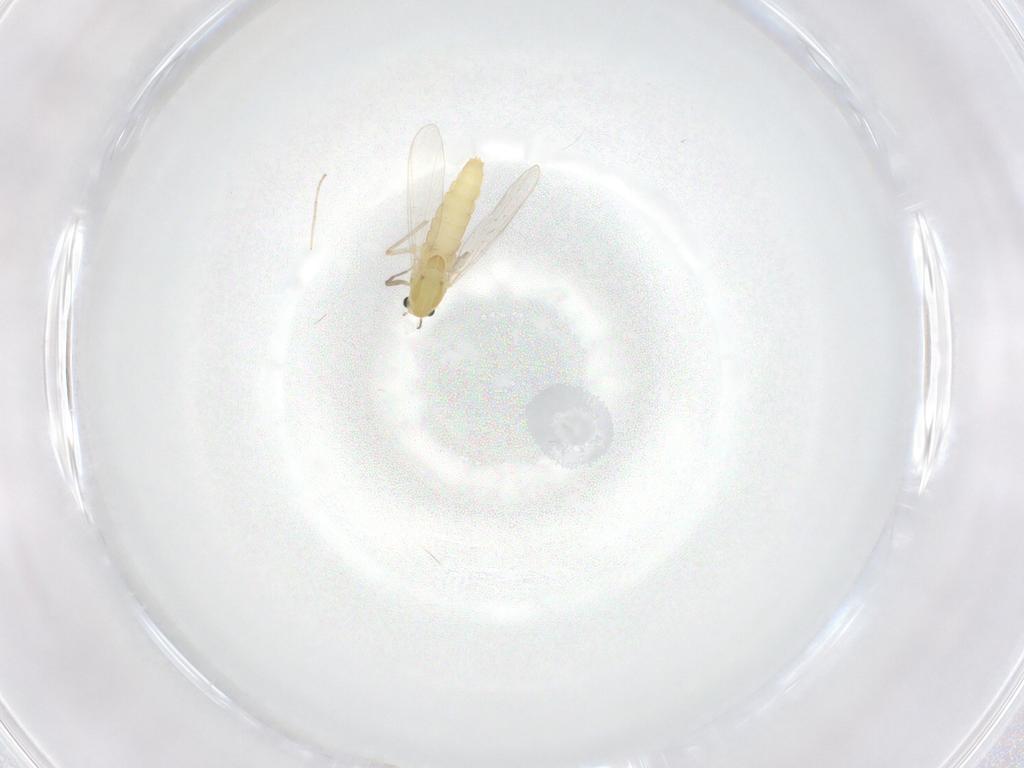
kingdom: Animalia
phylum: Arthropoda
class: Insecta
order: Diptera
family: Chironomidae
